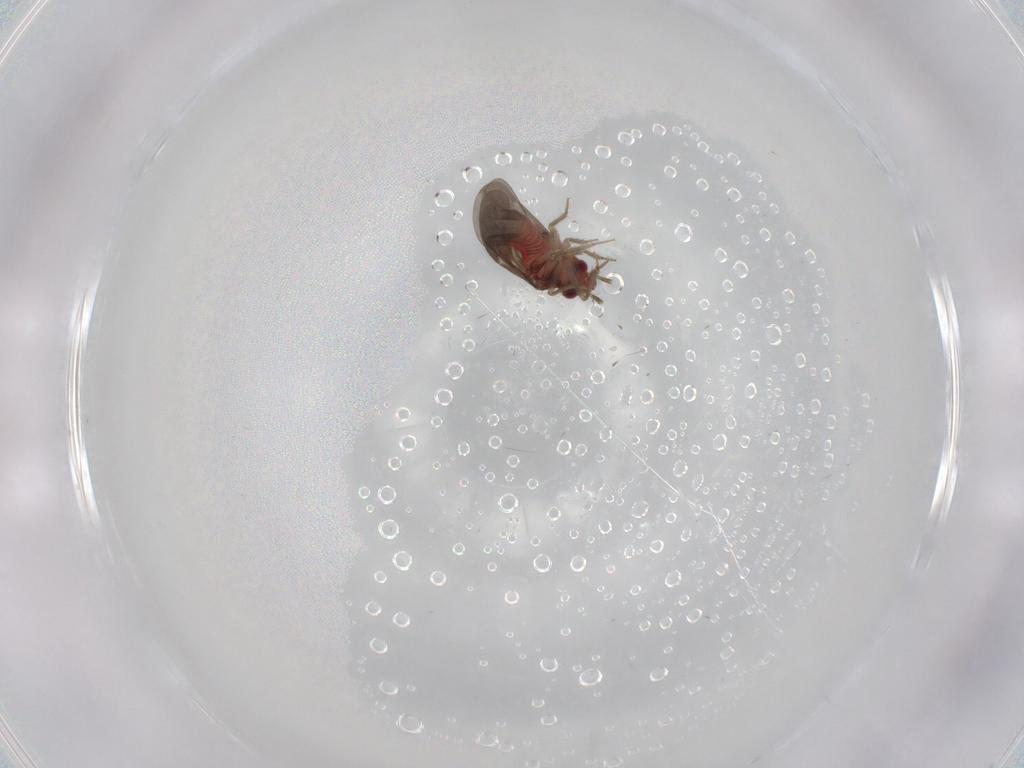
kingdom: Animalia
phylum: Arthropoda
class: Insecta
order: Hemiptera
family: Ceratocombidae
